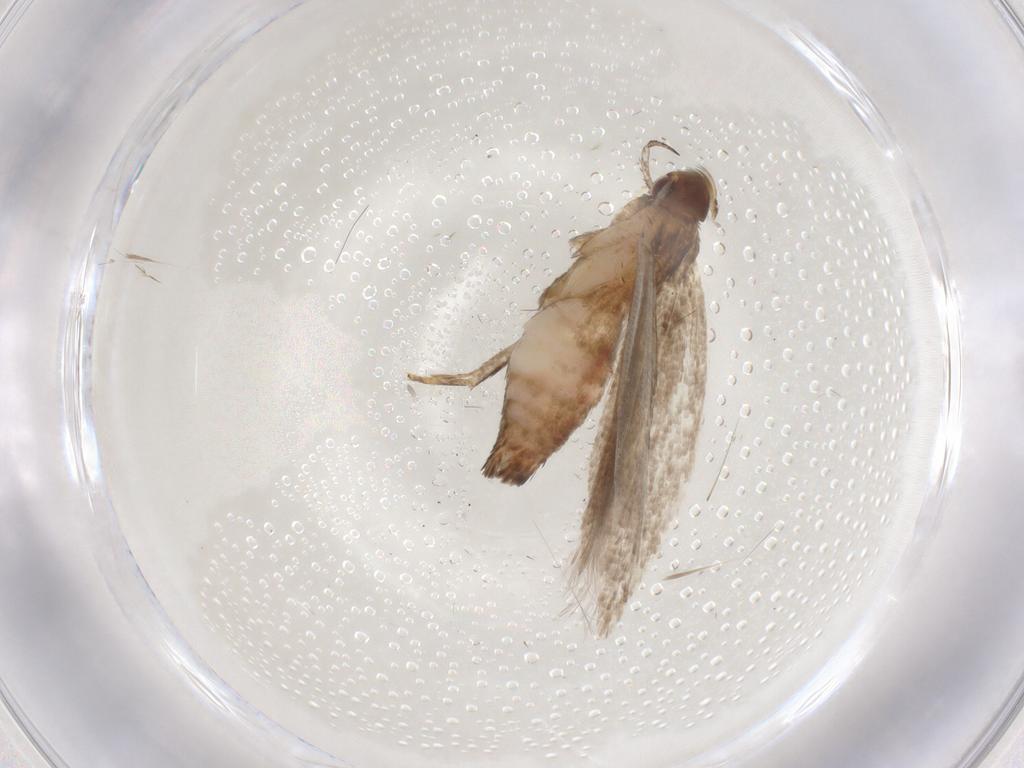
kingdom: Animalia
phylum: Arthropoda
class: Insecta
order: Lepidoptera
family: Gelechiidae
